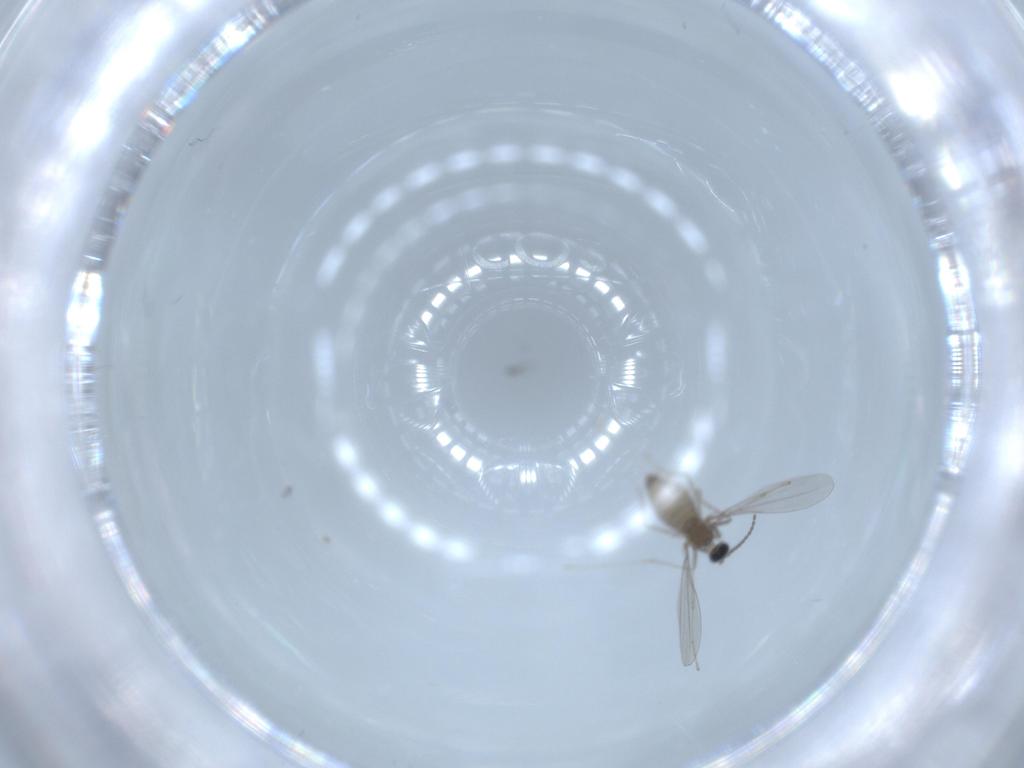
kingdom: Animalia
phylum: Arthropoda
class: Insecta
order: Diptera
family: Cecidomyiidae
